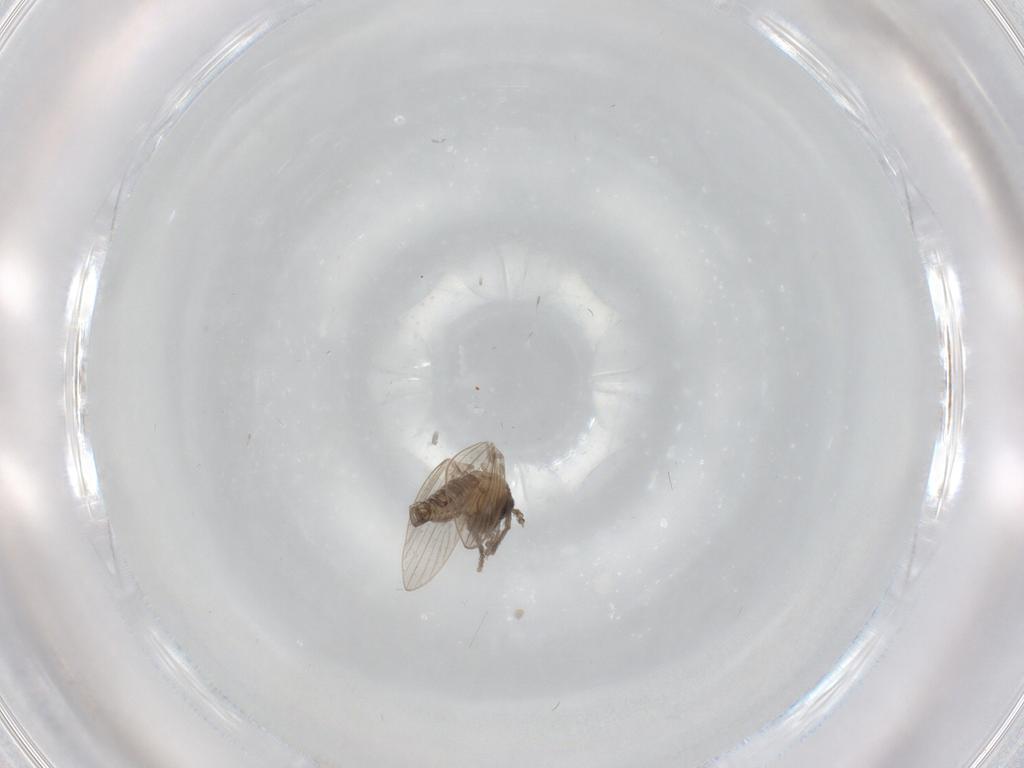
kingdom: Animalia
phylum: Arthropoda
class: Insecta
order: Diptera
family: Psychodidae
